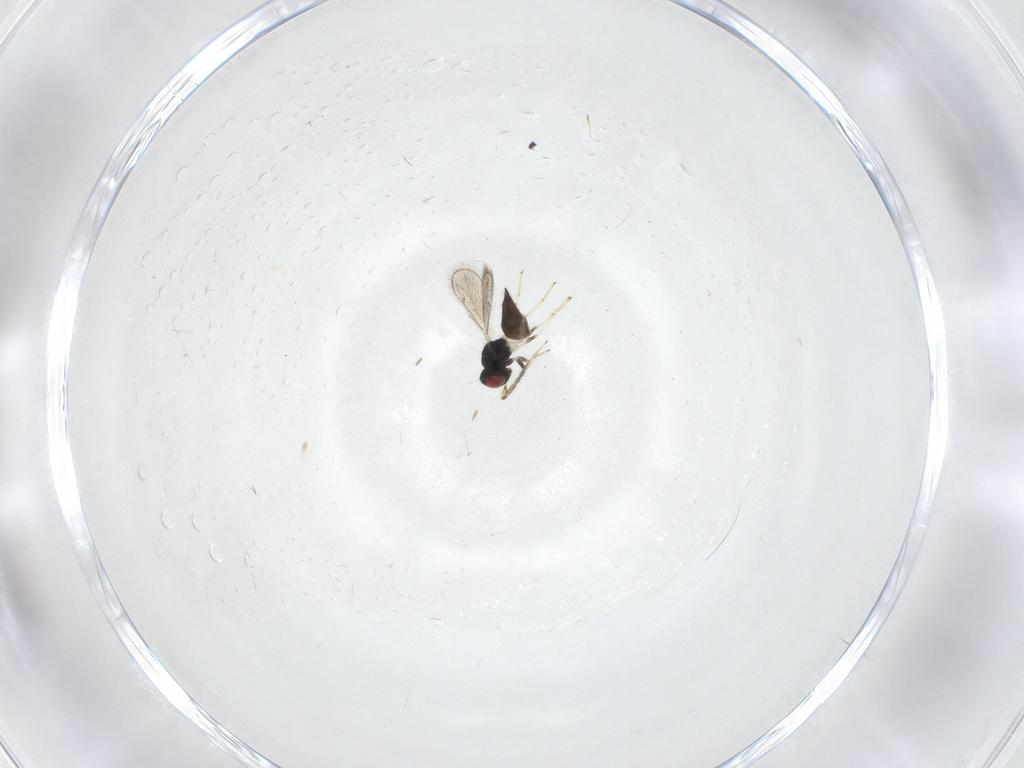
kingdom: Animalia
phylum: Arthropoda
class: Insecta
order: Hymenoptera
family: Eulophidae
